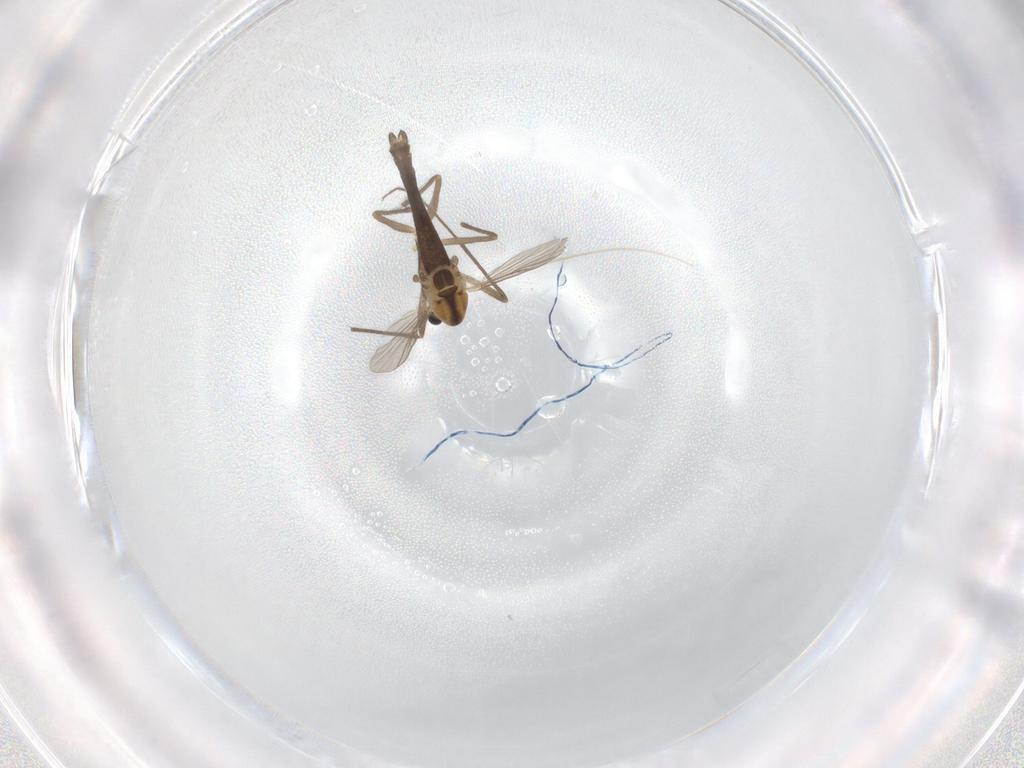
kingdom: Animalia
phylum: Arthropoda
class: Insecta
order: Diptera
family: Chironomidae
